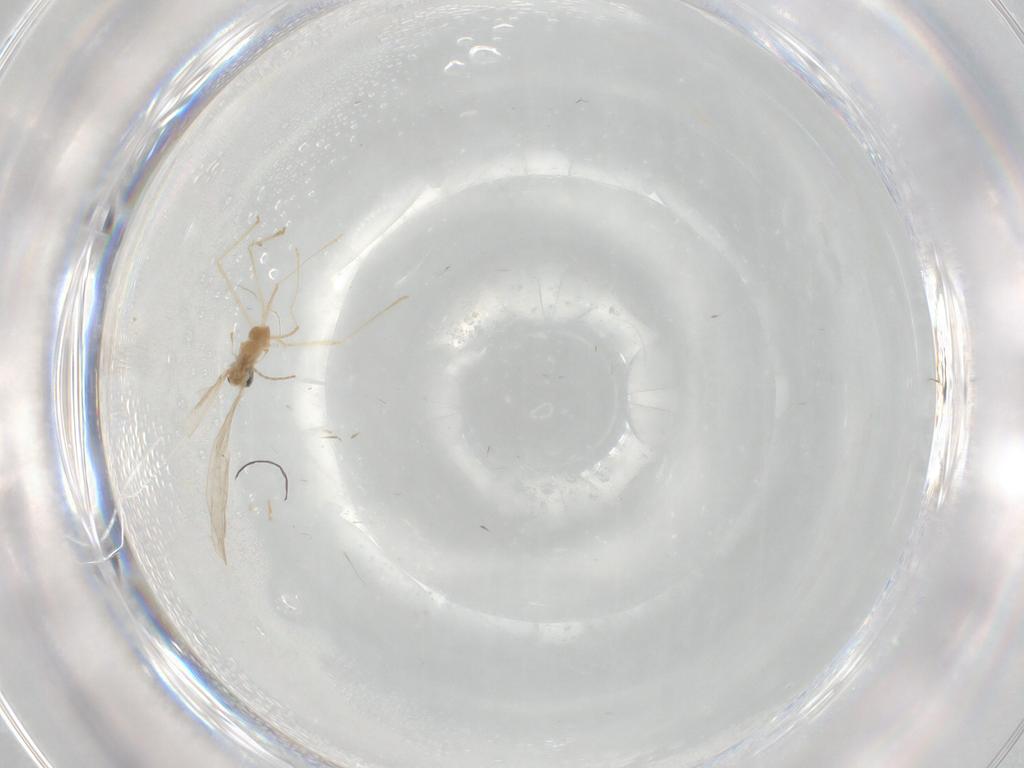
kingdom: Animalia
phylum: Arthropoda
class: Insecta
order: Diptera
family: Cecidomyiidae
